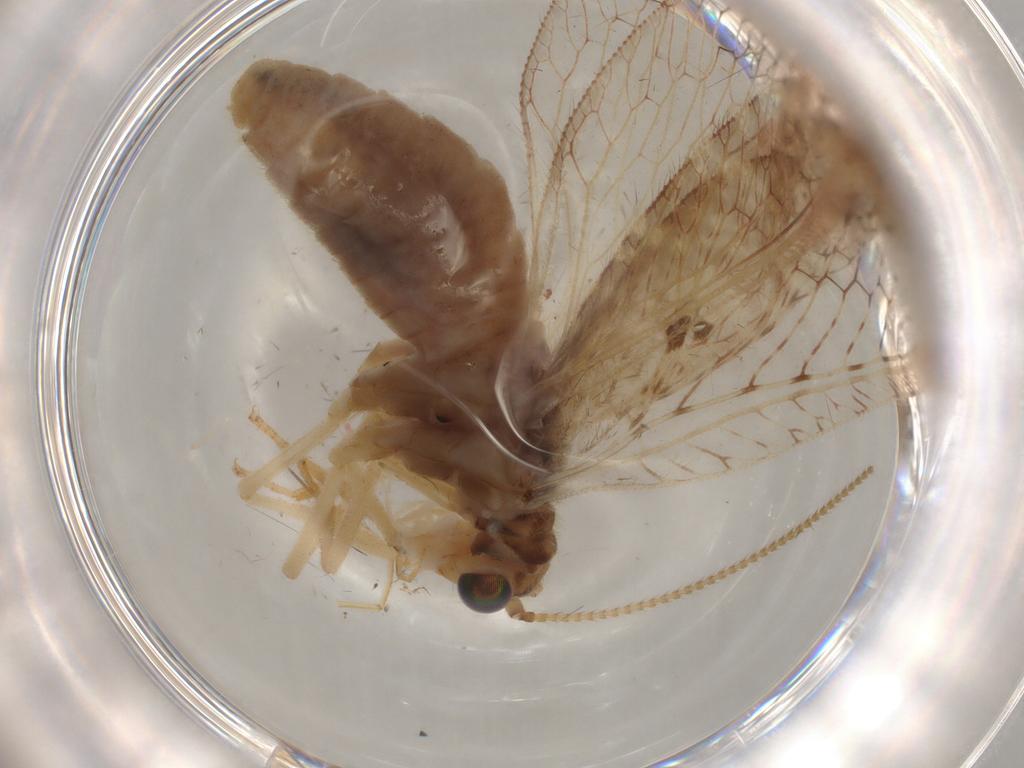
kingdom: Animalia
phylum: Arthropoda
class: Insecta
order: Neuroptera
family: Hemerobiidae
